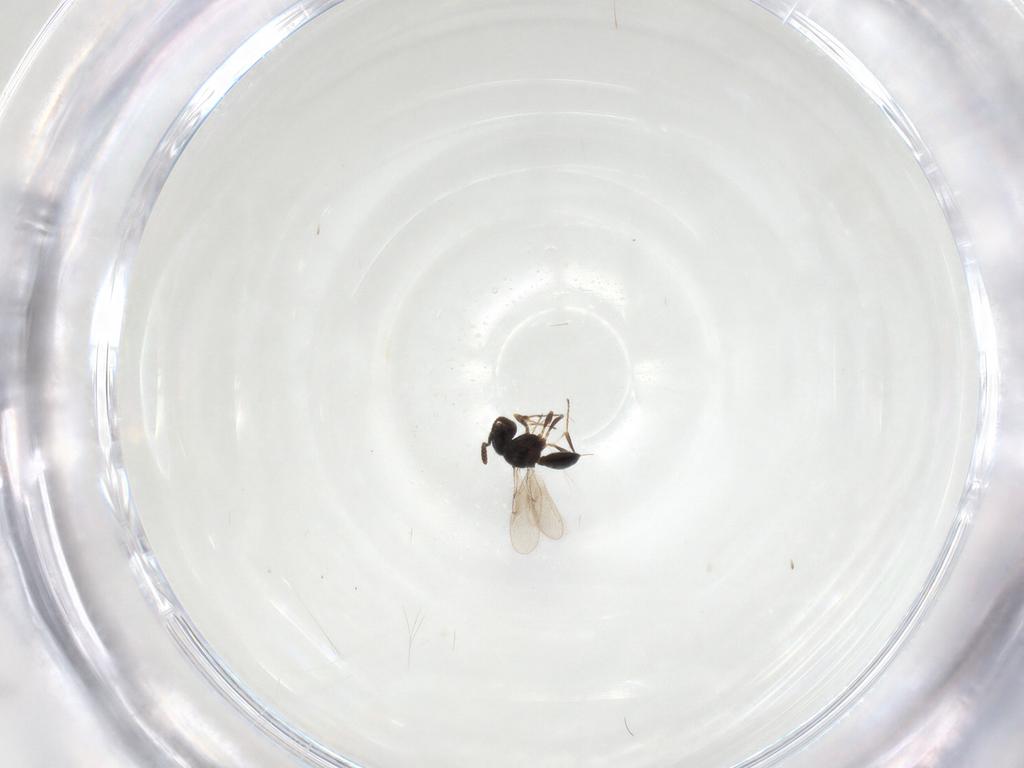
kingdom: Animalia
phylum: Arthropoda
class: Insecta
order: Hymenoptera
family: Scelionidae
